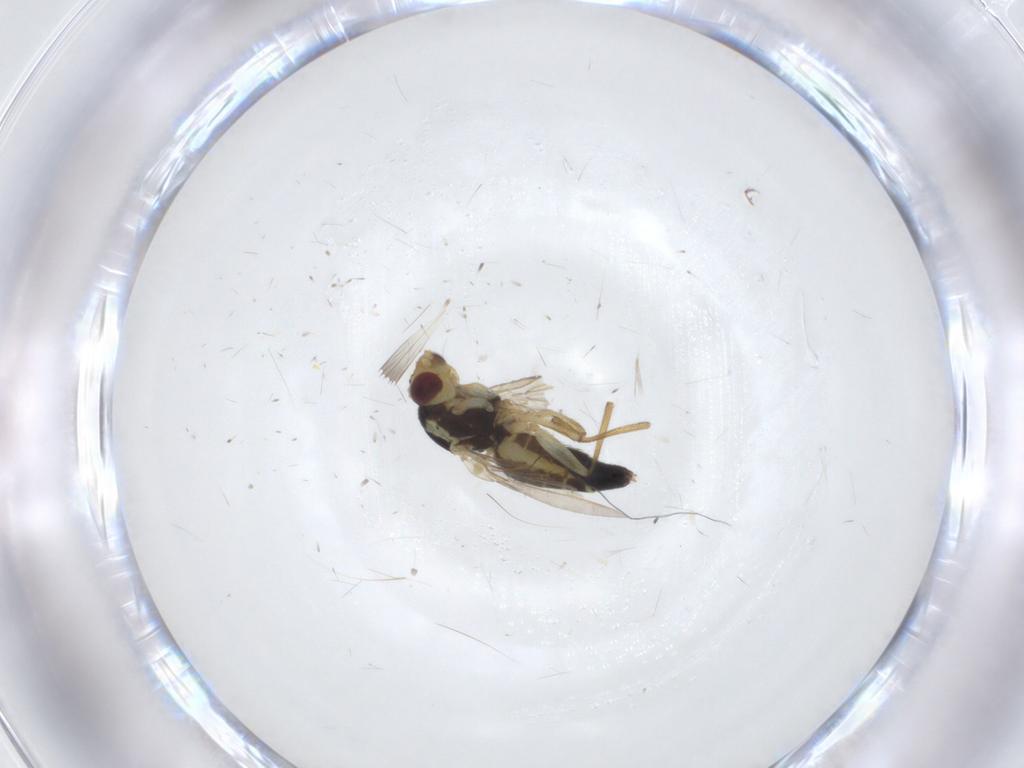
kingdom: Animalia
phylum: Arthropoda
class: Insecta
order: Diptera
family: Agromyzidae
